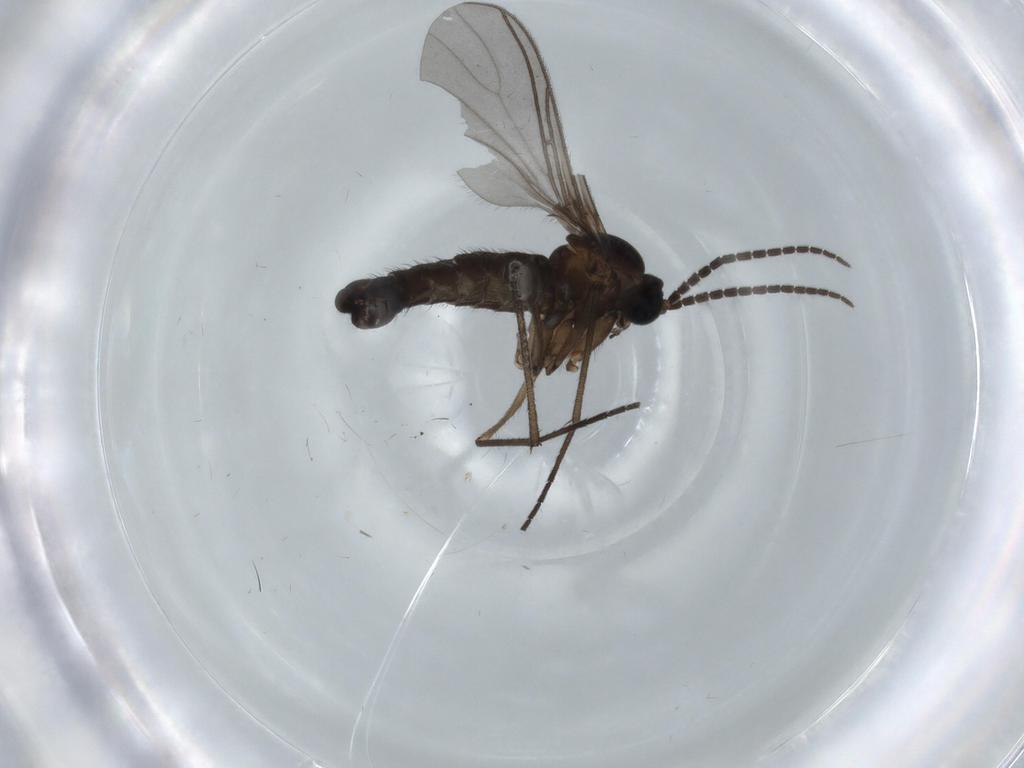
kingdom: Animalia
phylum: Arthropoda
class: Insecta
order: Diptera
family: Sciaridae
